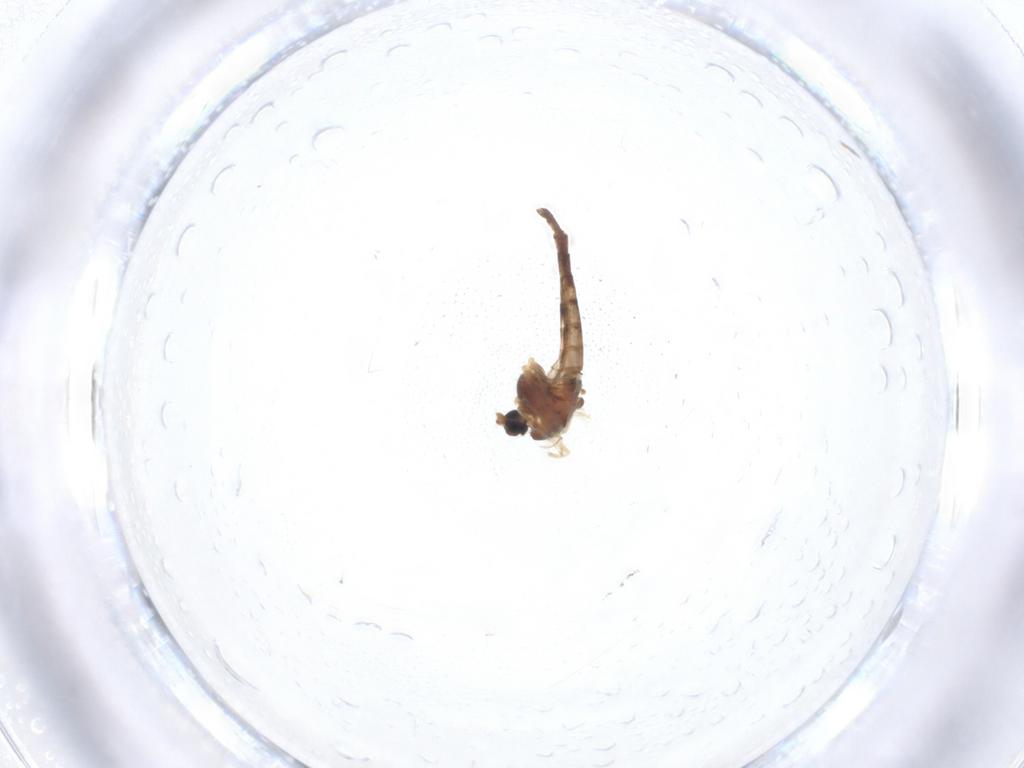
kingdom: Animalia
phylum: Arthropoda
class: Insecta
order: Diptera
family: Chironomidae
